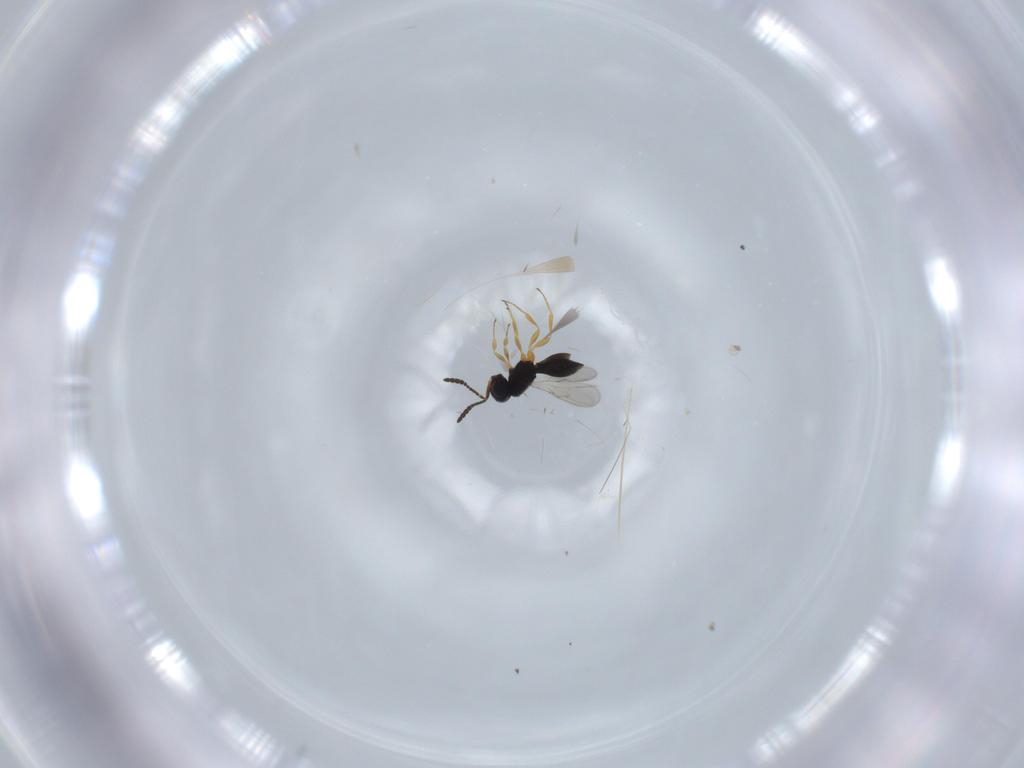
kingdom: Animalia
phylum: Arthropoda
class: Insecta
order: Hymenoptera
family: Scelionidae
